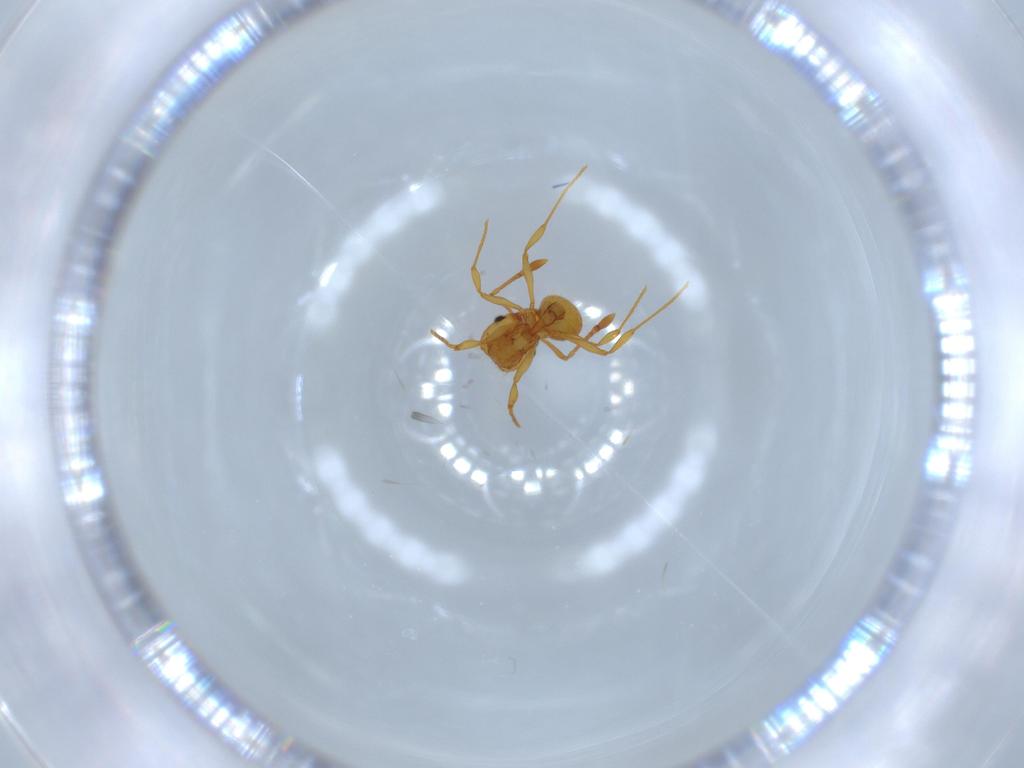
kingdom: Animalia
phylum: Arthropoda
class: Insecta
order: Hymenoptera
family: Formicidae
